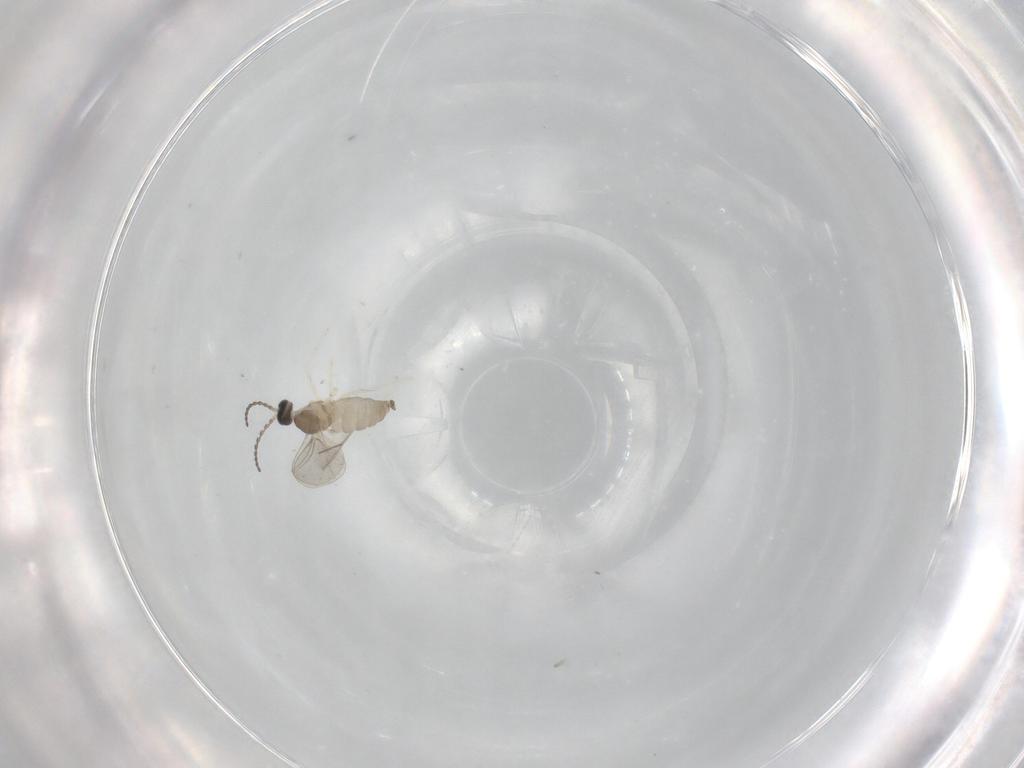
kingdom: Animalia
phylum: Arthropoda
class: Insecta
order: Diptera
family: Cecidomyiidae
